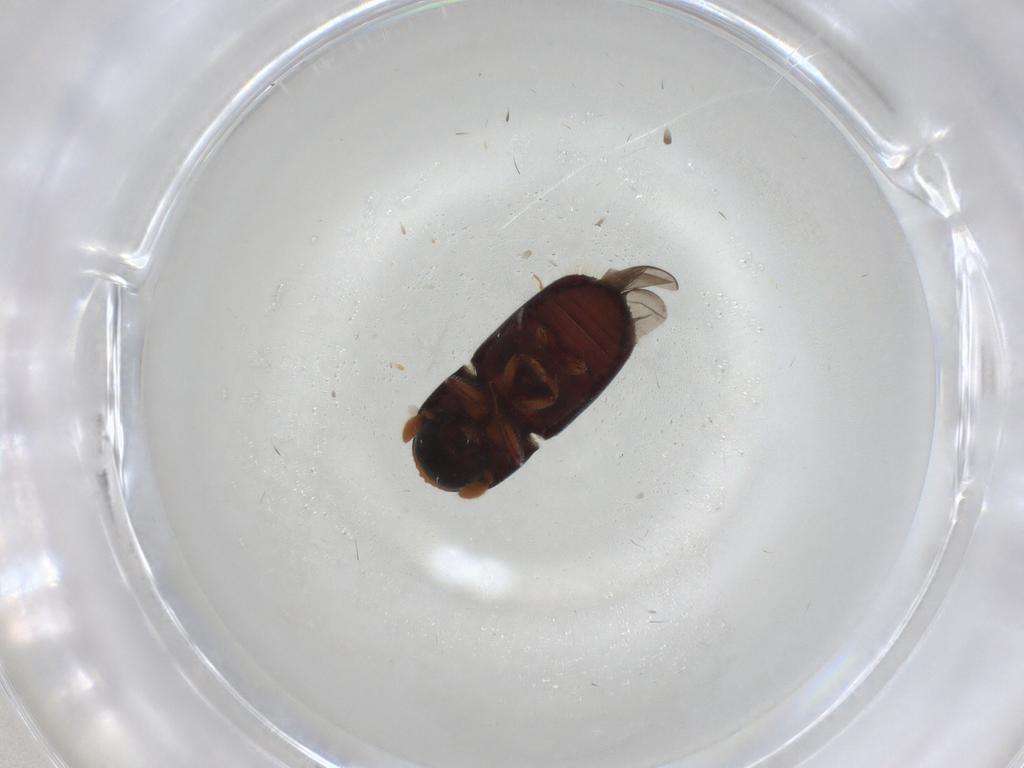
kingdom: Animalia
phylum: Arthropoda
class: Insecta
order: Coleoptera
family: Curculionidae
